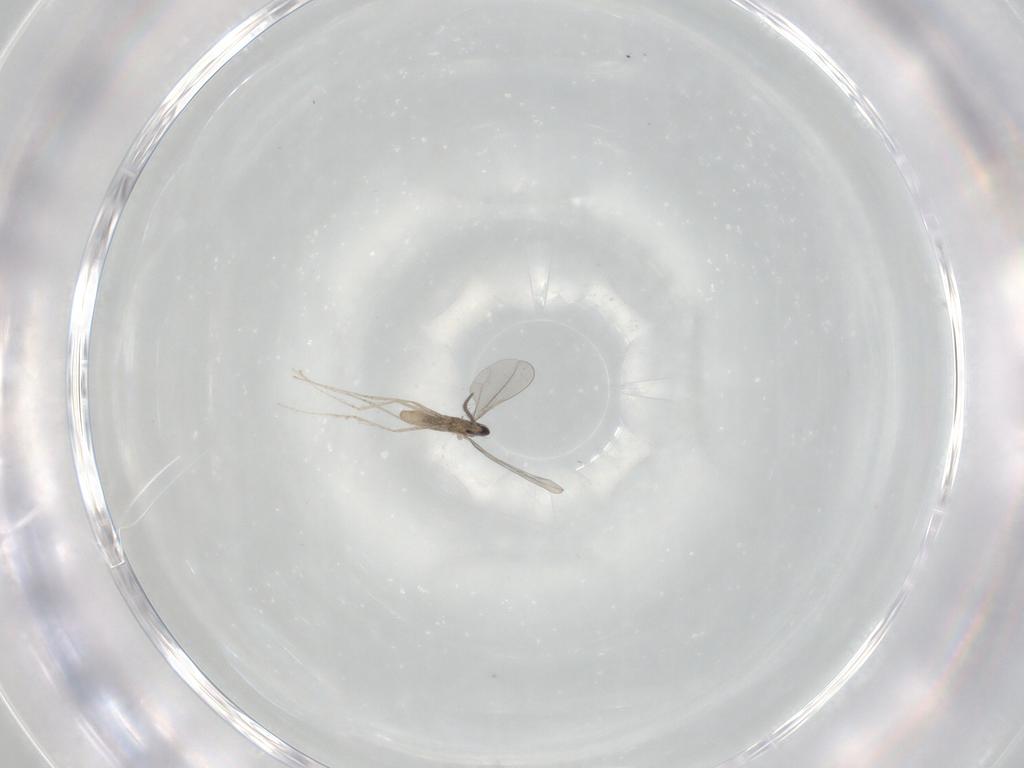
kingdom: Animalia
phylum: Arthropoda
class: Insecta
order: Diptera
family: Cecidomyiidae
